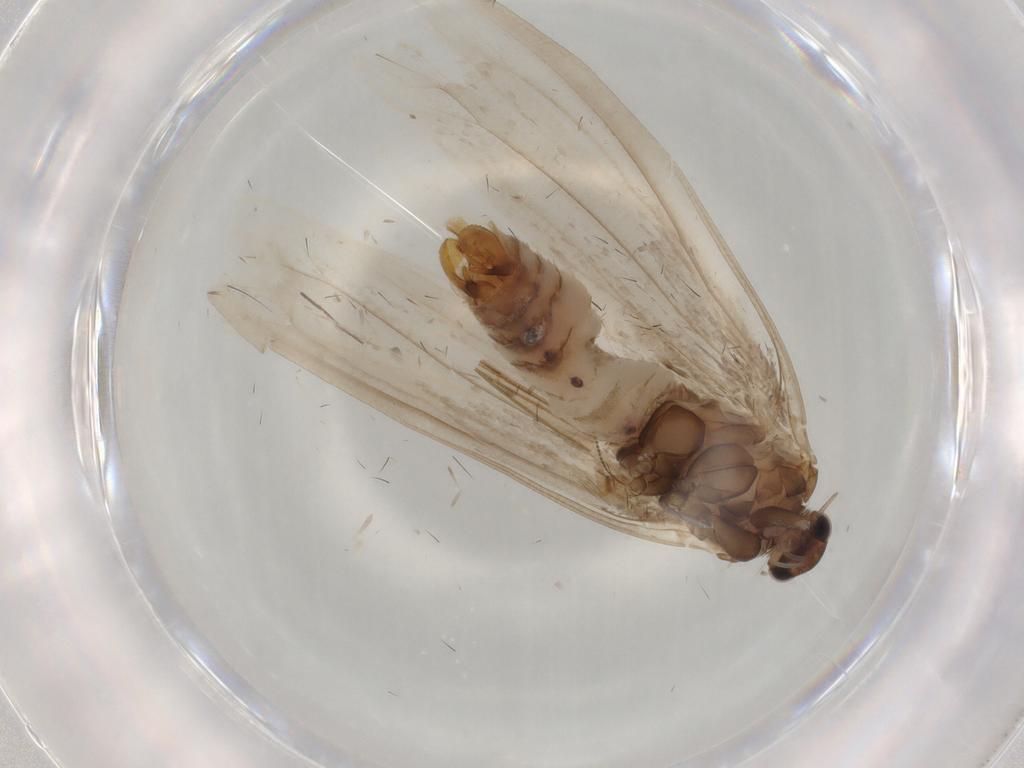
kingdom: Animalia
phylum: Arthropoda
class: Insecta
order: Lepidoptera
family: Yponomeutidae
